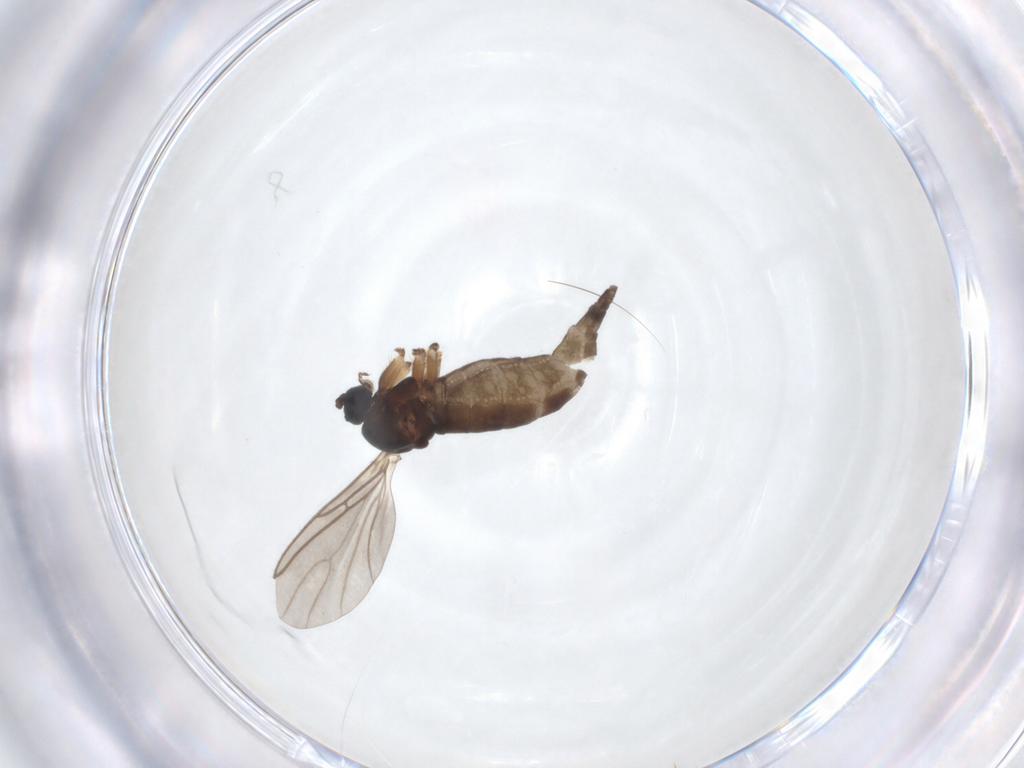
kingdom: Animalia
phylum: Arthropoda
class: Insecta
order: Diptera
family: Sciaridae
